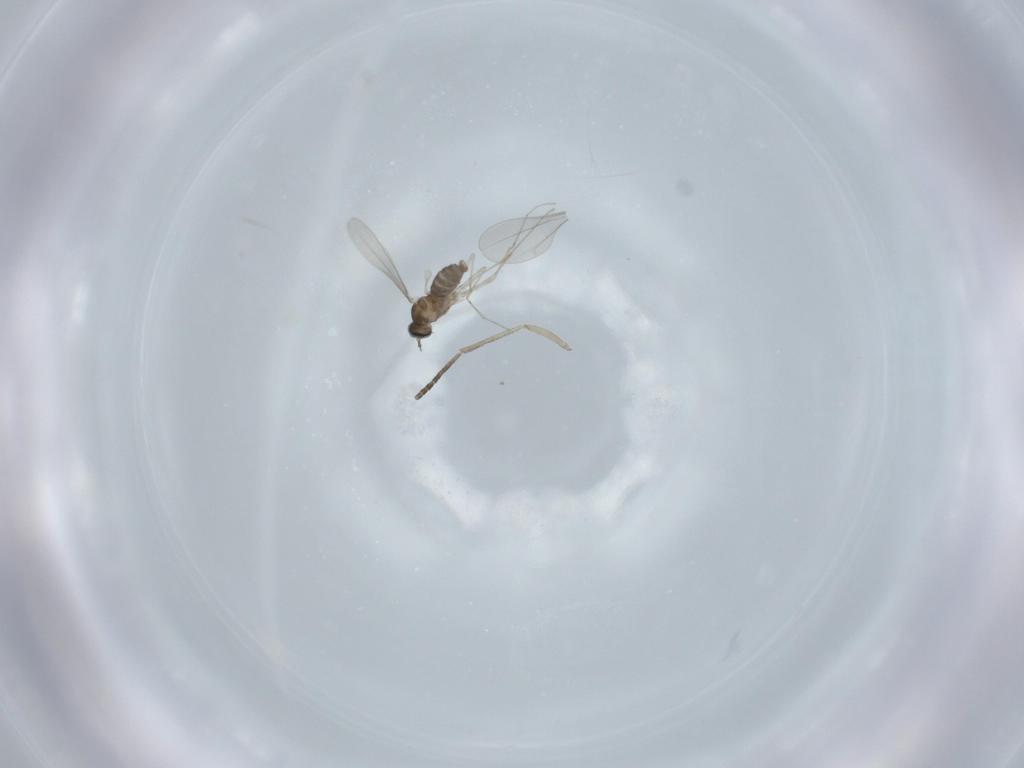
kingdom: Animalia
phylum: Arthropoda
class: Insecta
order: Diptera
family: Cecidomyiidae
